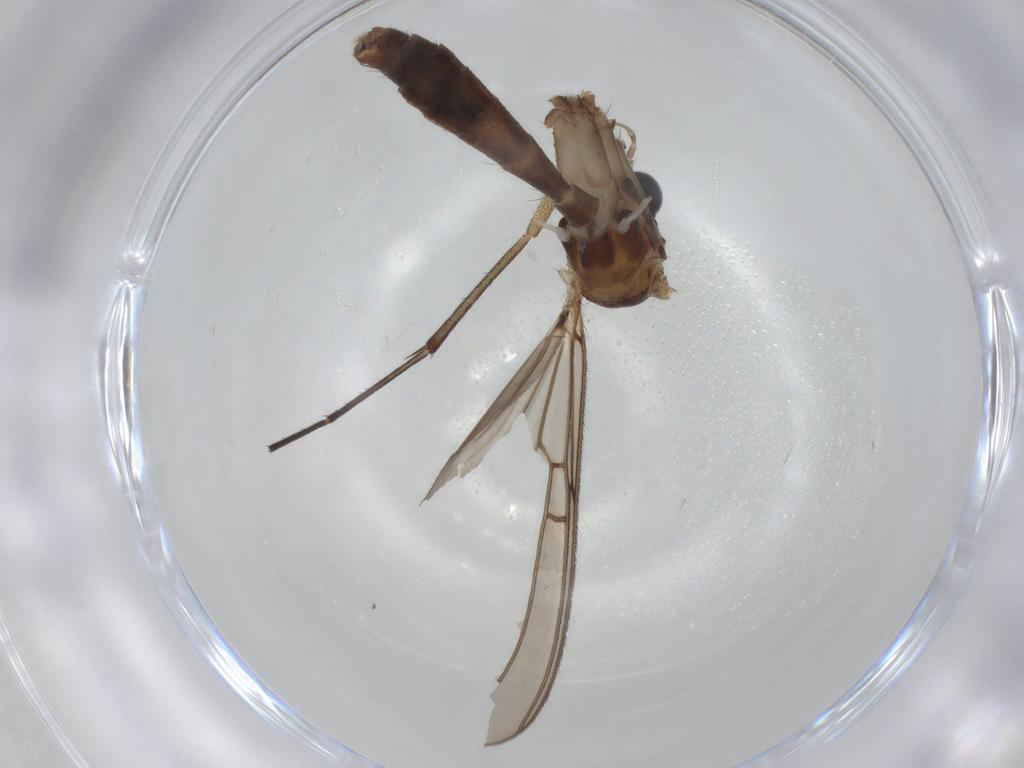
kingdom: Animalia
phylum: Arthropoda
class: Insecta
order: Diptera
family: Mycetophilidae
